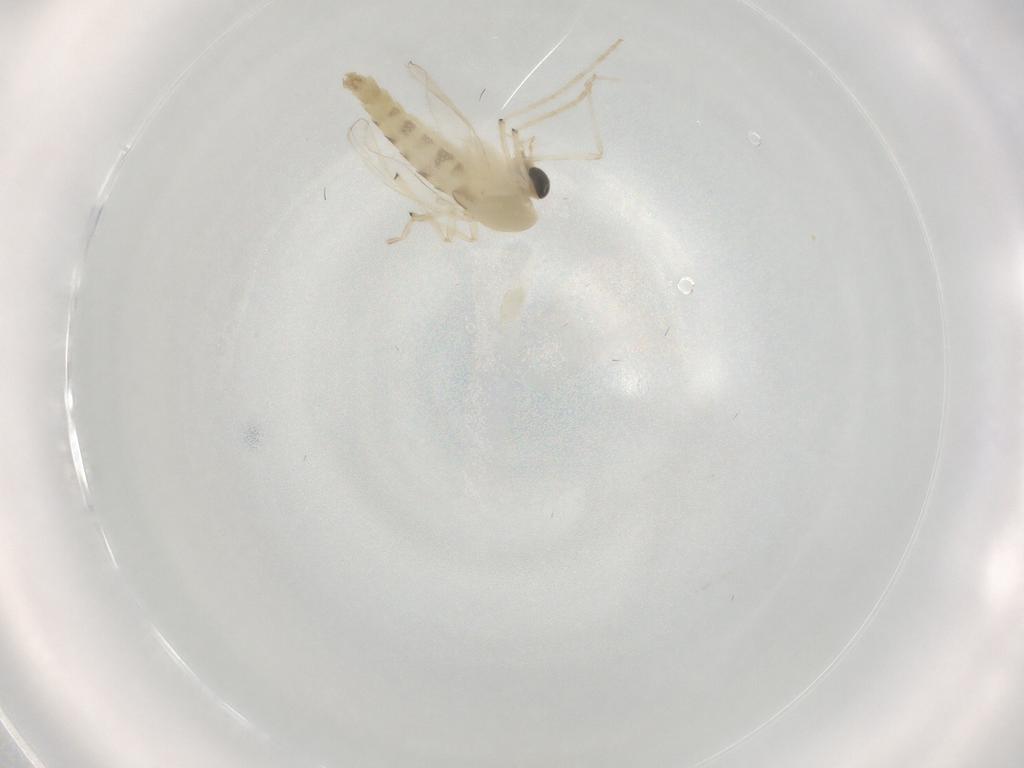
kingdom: Animalia
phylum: Arthropoda
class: Insecta
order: Diptera
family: Chironomidae
